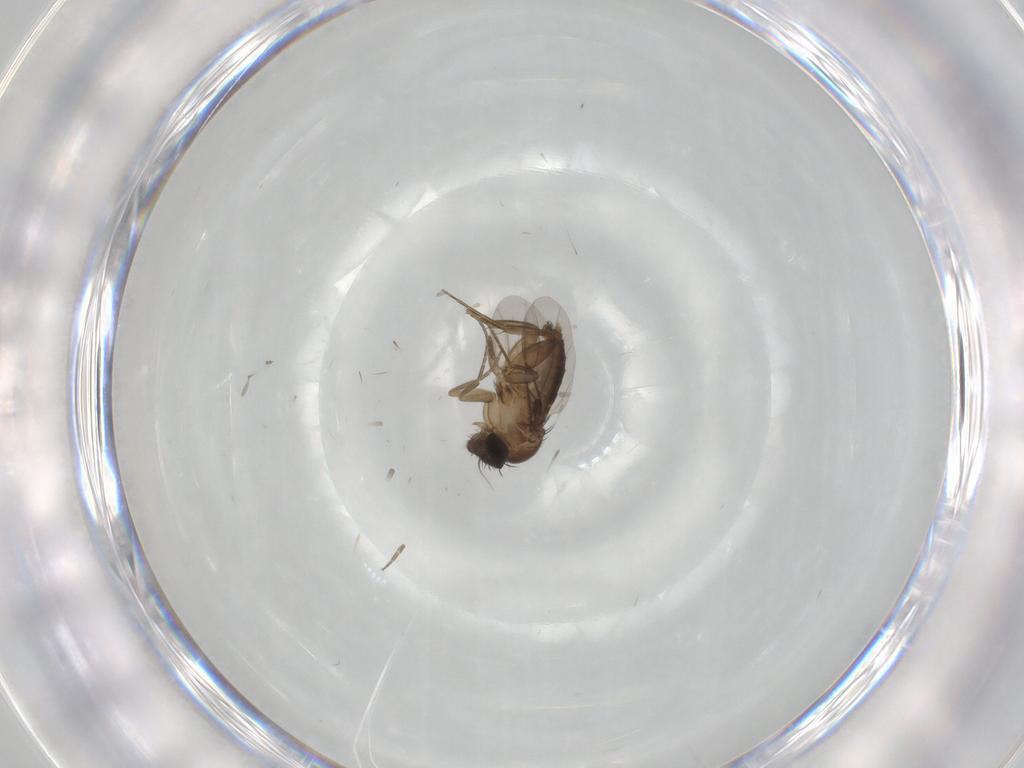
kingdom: Animalia
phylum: Arthropoda
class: Insecta
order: Diptera
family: Phoridae
